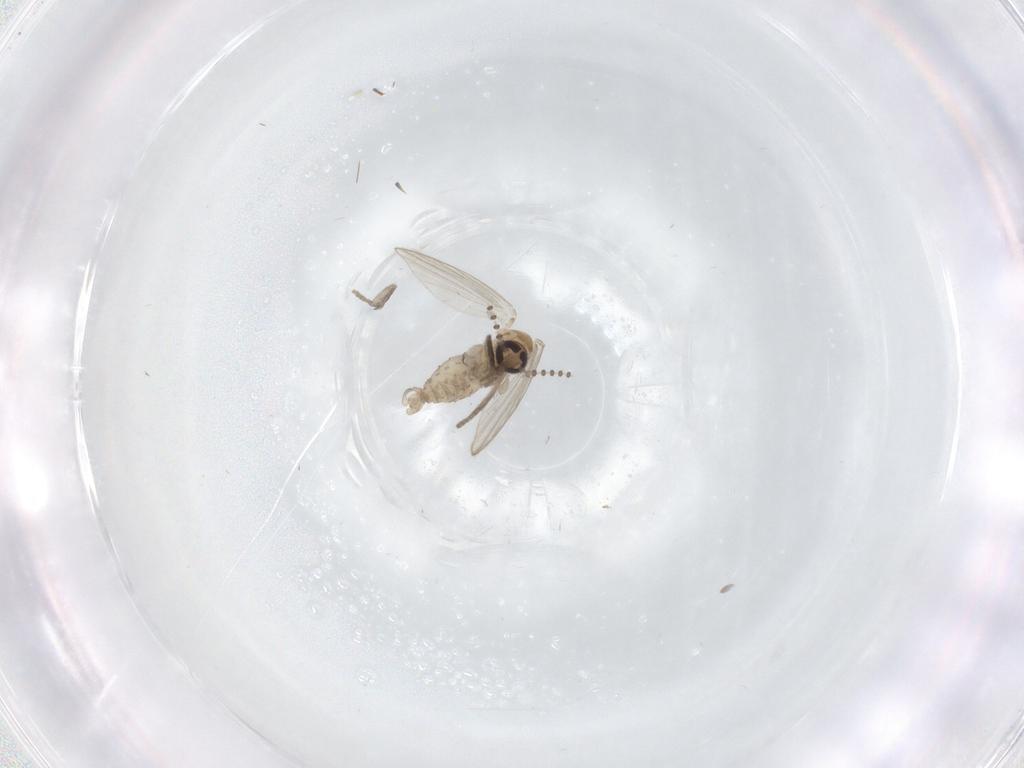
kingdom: Animalia
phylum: Arthropoda
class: Insecta
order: Diptera
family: Psychodidae
